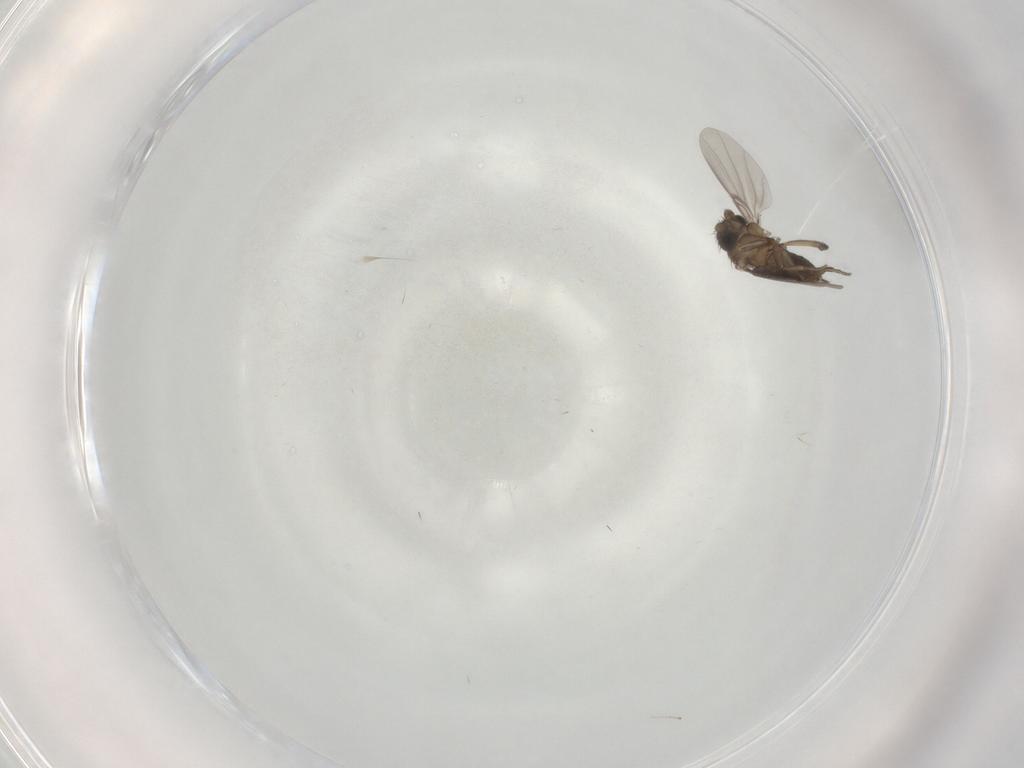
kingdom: Animalia
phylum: Arthropoda
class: Insecta
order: Diptera
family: Phoridae
